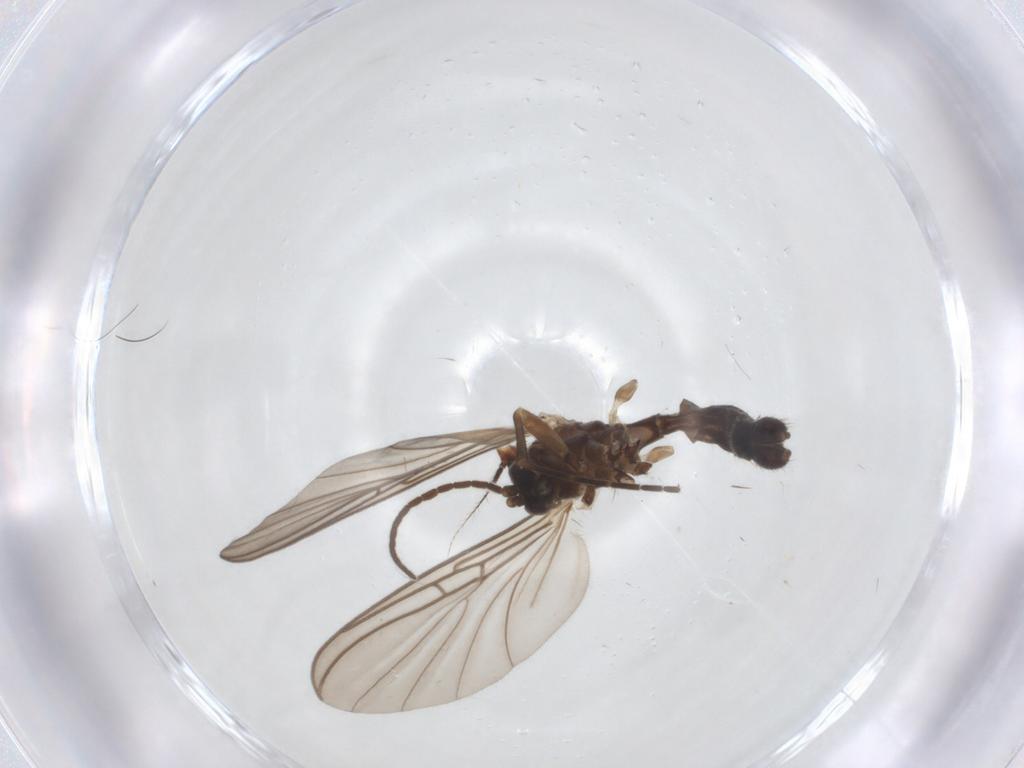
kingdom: Animalia
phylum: Arthropoda
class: Insecta
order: Diptera
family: Mycetophilidae
